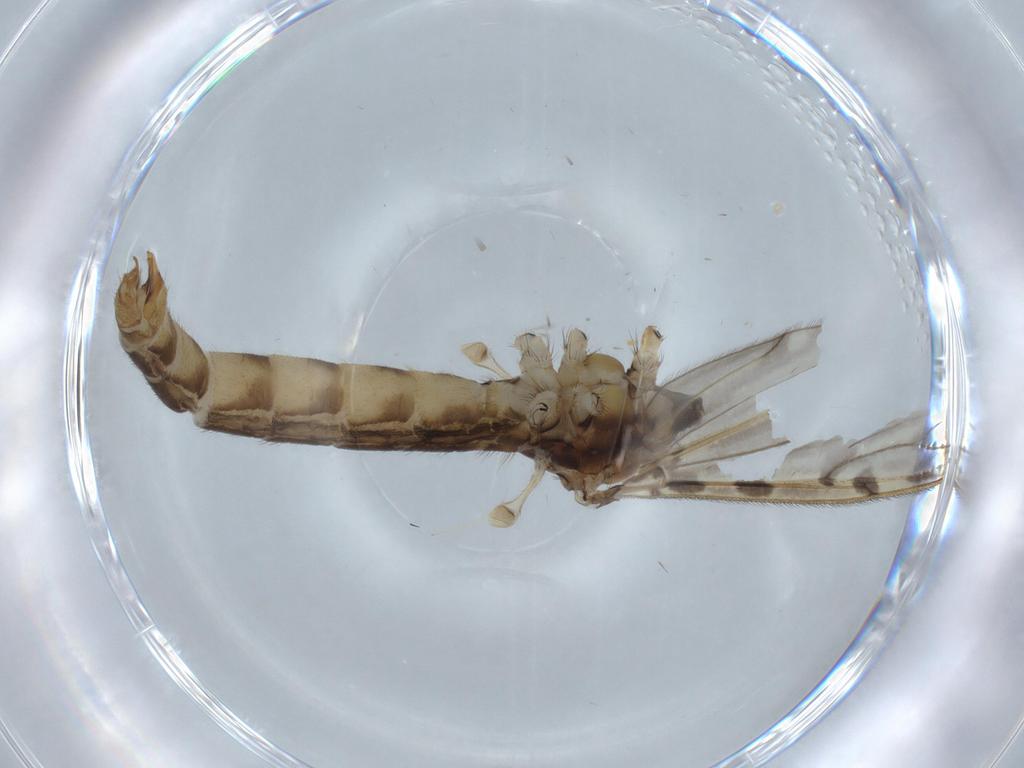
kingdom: Animalia
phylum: Arthropoda
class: Insecta
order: Diptera
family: Limoniidae
